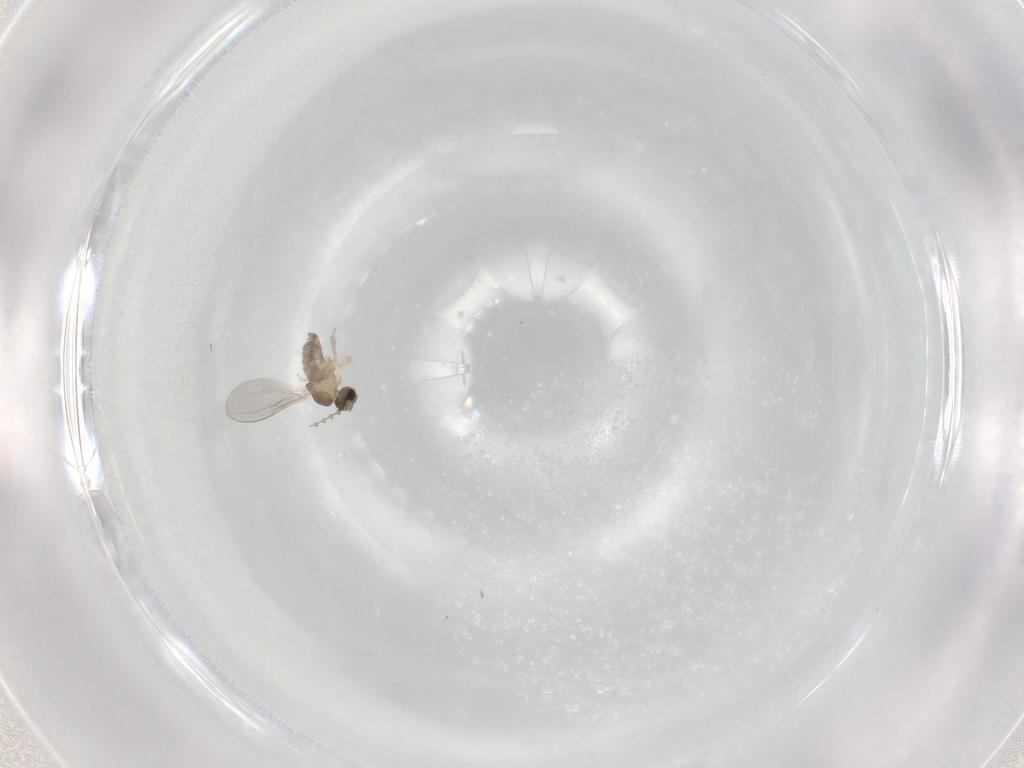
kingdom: Animalia
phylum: Arthropoda
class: Insecta
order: Diptera
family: Cecidomyiidae
